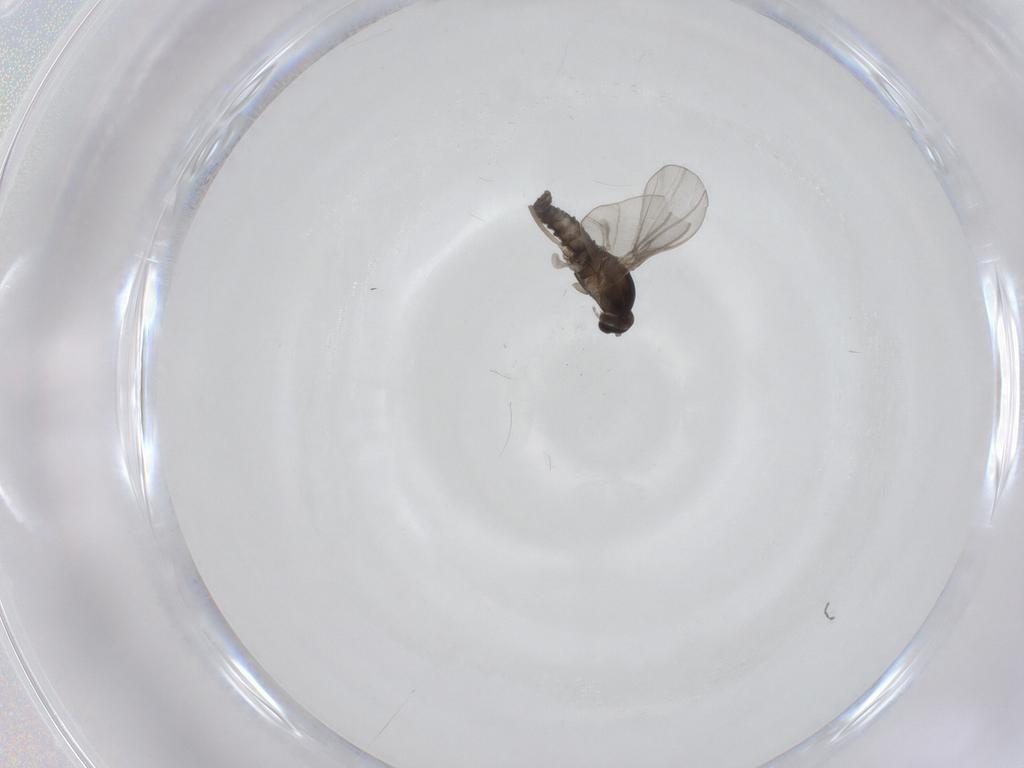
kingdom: Animalia
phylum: Arthropoda
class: Insecta
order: Diptera
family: Cecidomyiidae
